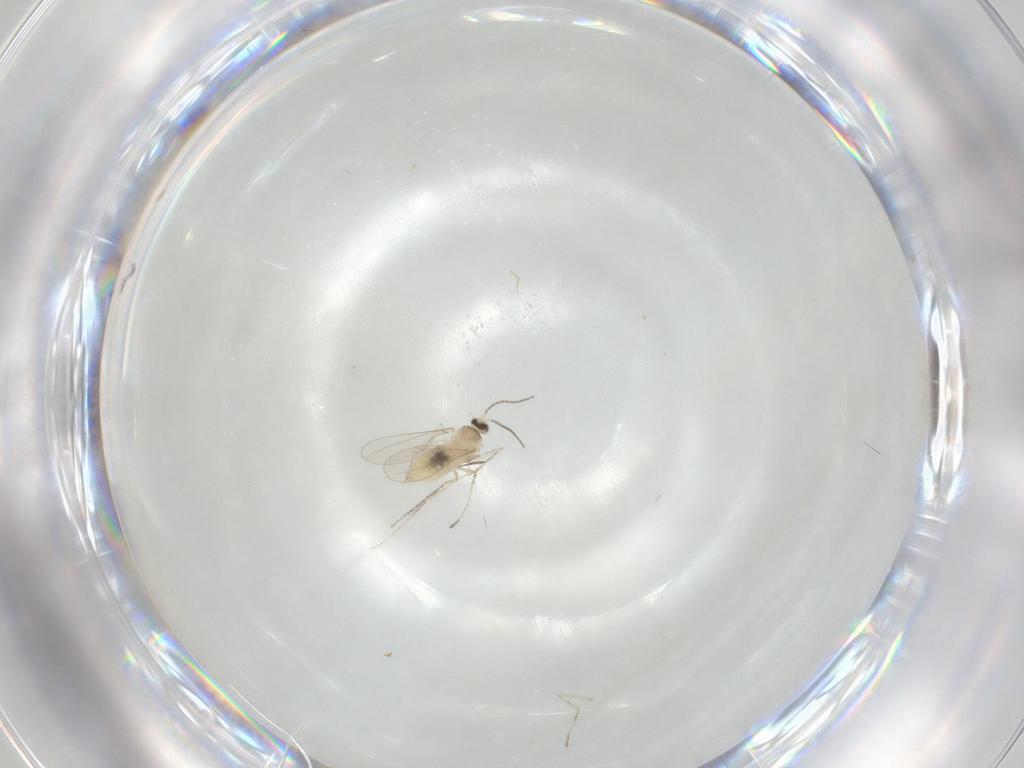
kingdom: Animalia
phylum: Arthropoda
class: Insecta
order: Diptera
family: Cecidomyiidae
